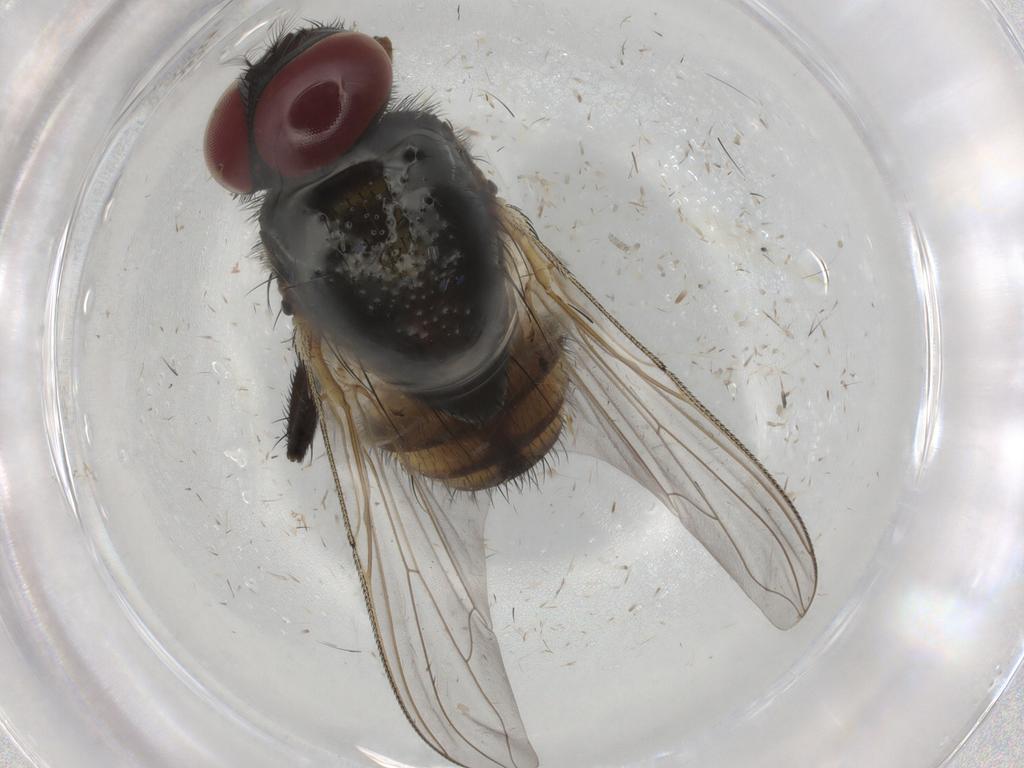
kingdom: Animalia
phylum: Arthropoda
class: Insecta
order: Diptera
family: Muscidae
